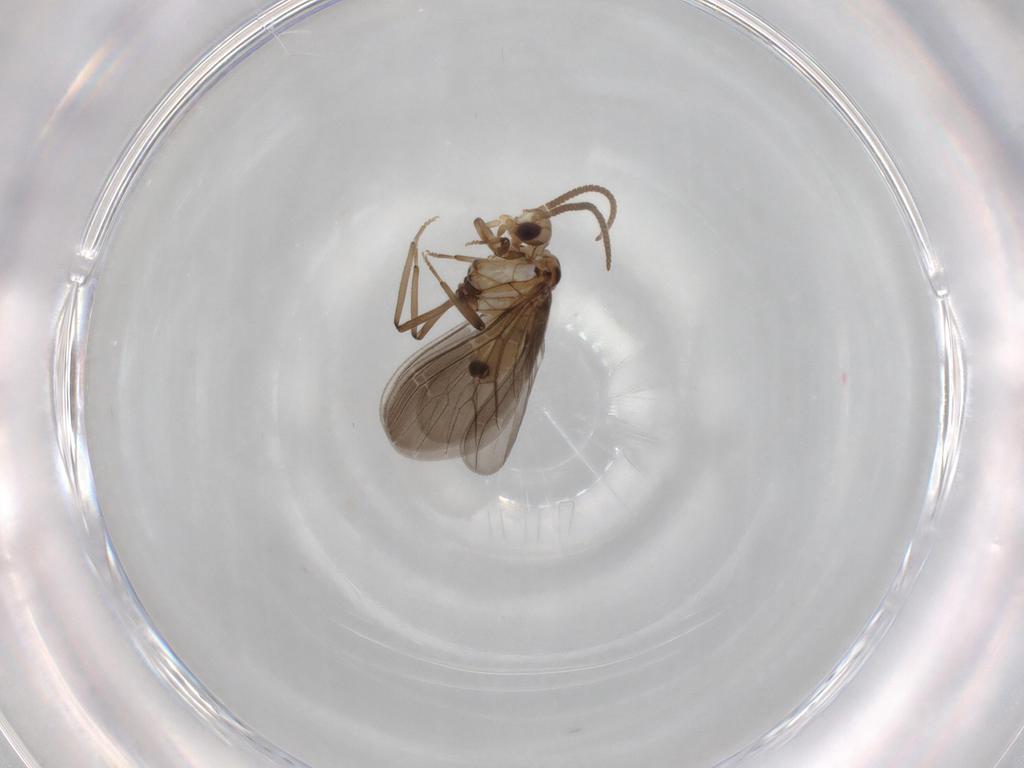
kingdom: Animalia
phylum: Arthropoda
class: Insecta
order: Neuroptera
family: Coniopterygidae
